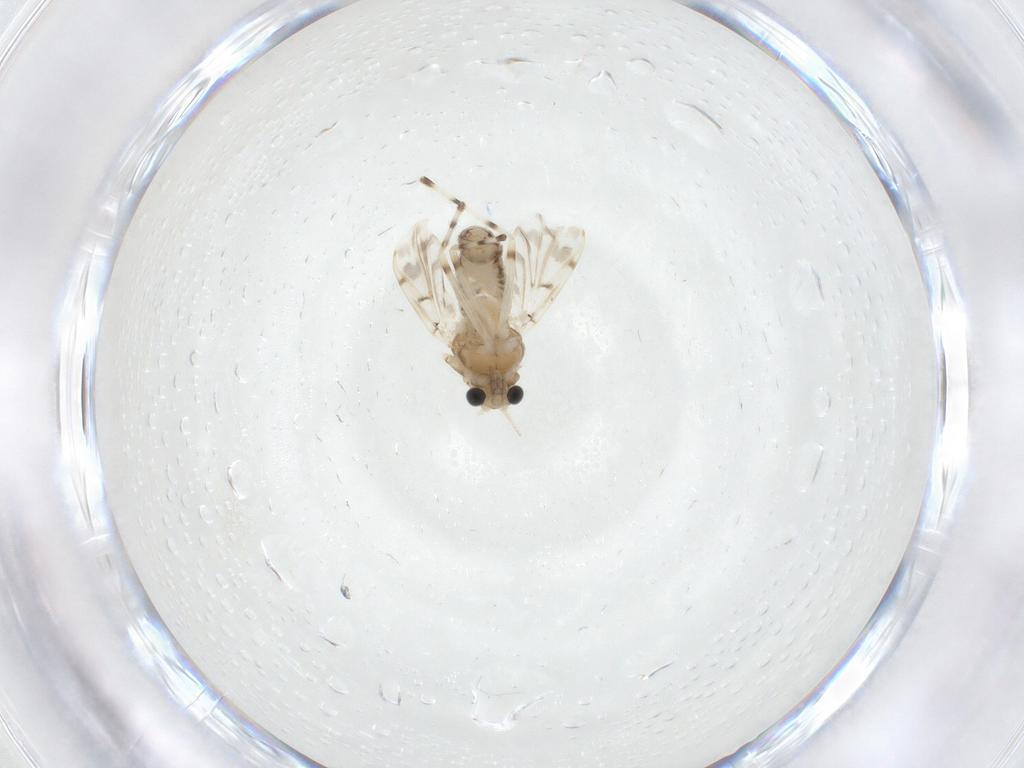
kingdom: Animalia
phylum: Arthropoda
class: Insecta
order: Diptera
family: Chironomidae
